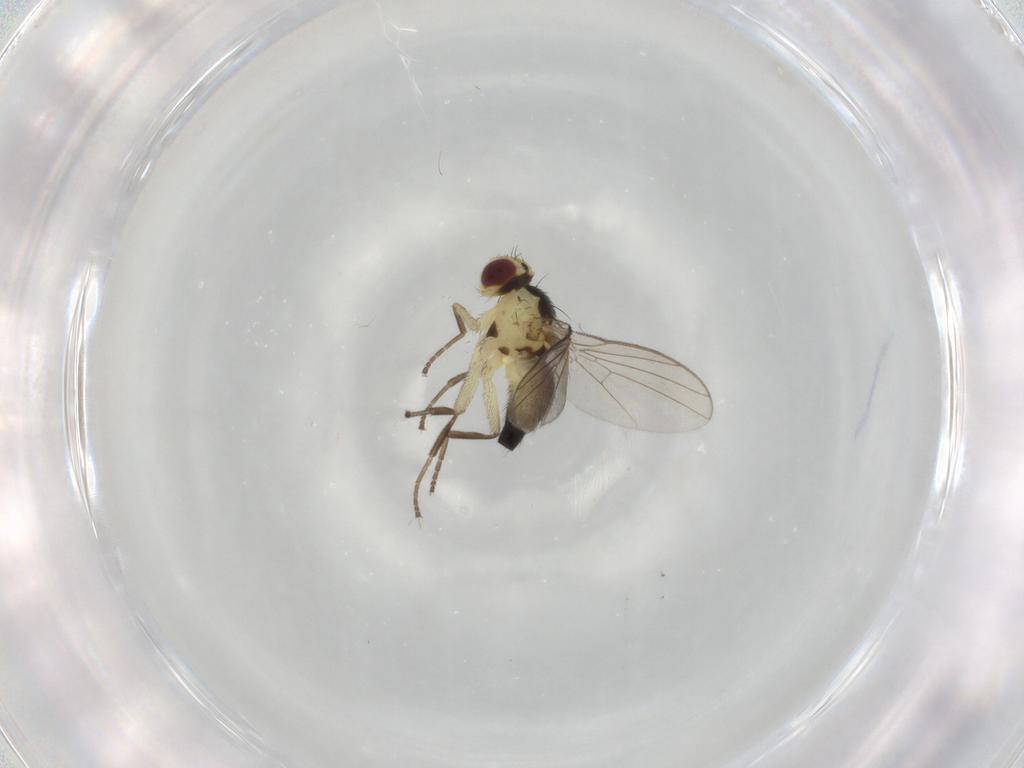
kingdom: Animalia
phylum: Arthropoda
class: Insecta
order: Diptera
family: Agromyzidae
